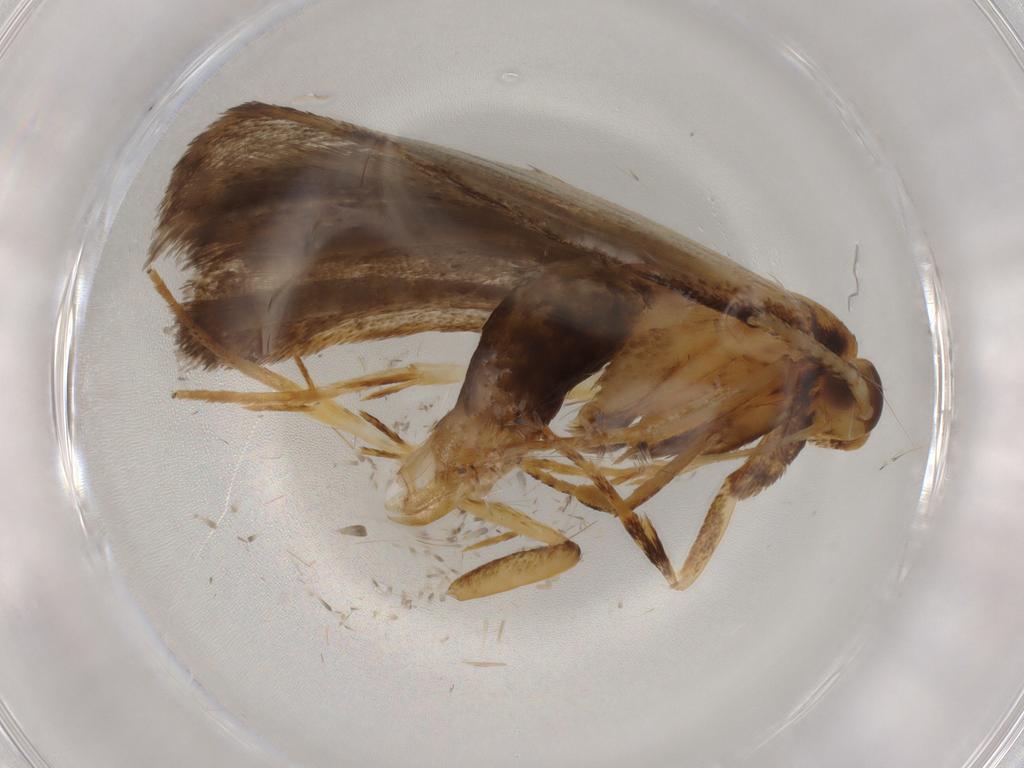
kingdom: Animalia
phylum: Arthropoda
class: Insecta
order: Lepidoptera
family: Lecithoceridae
